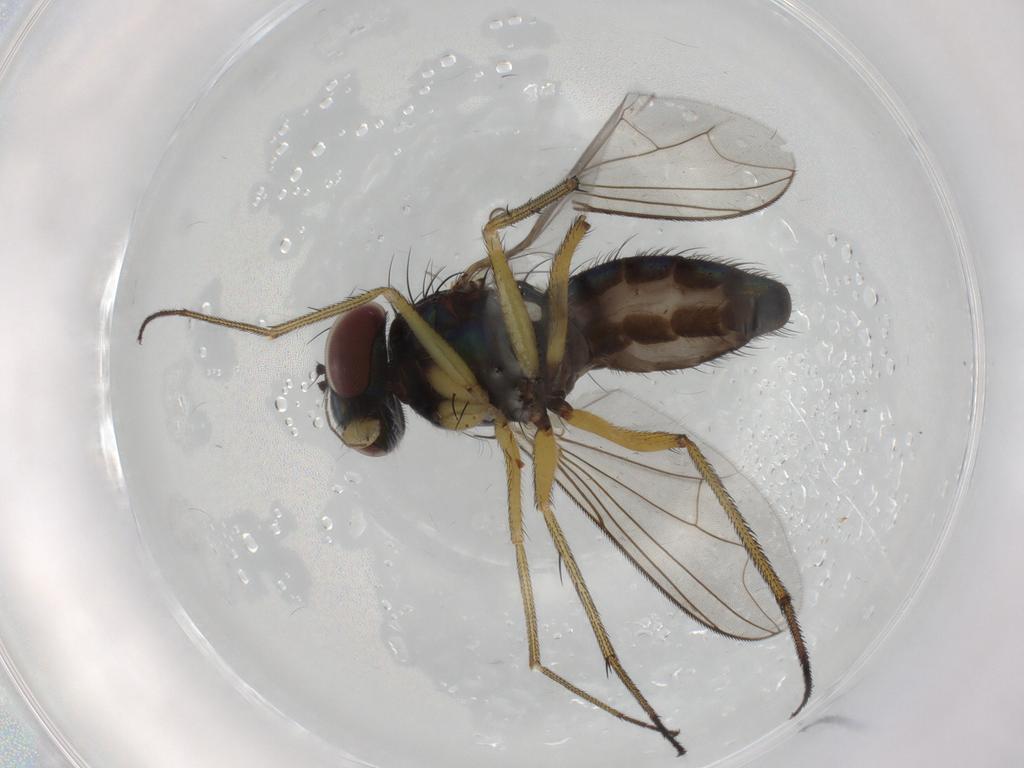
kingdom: Animalia
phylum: Arthropoda
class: Insecta
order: Diptera
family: Dolichopodidae
